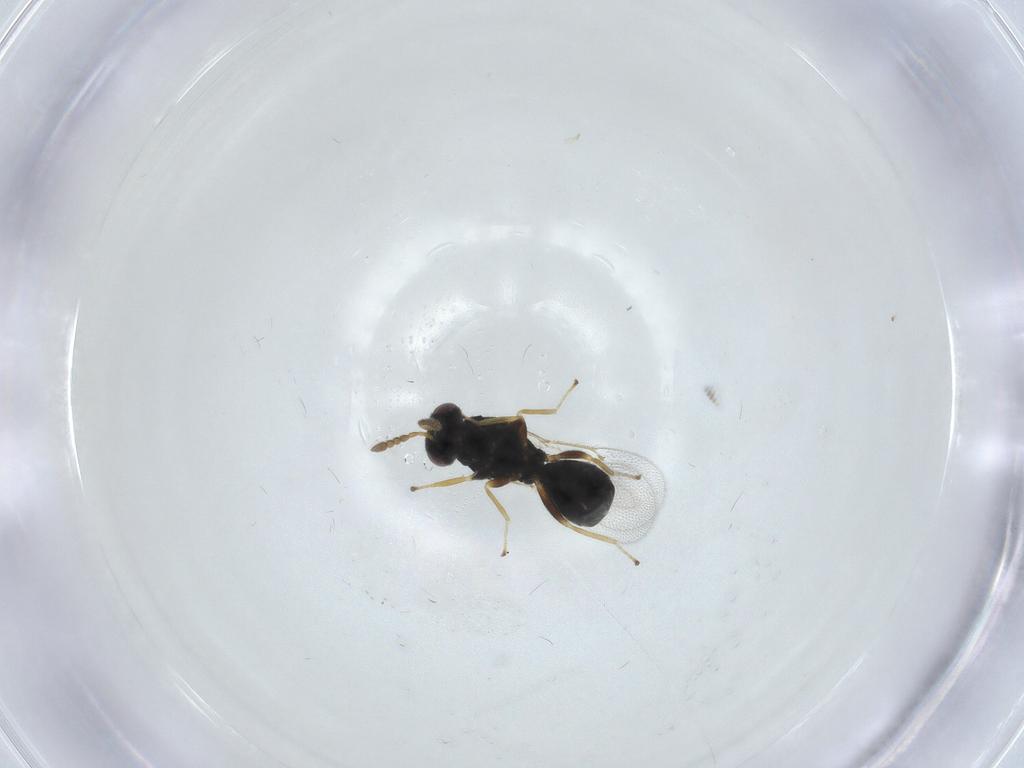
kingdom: Animalia
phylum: Arthropoda
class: Insecta
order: Hymenoptera
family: Eulophidae
